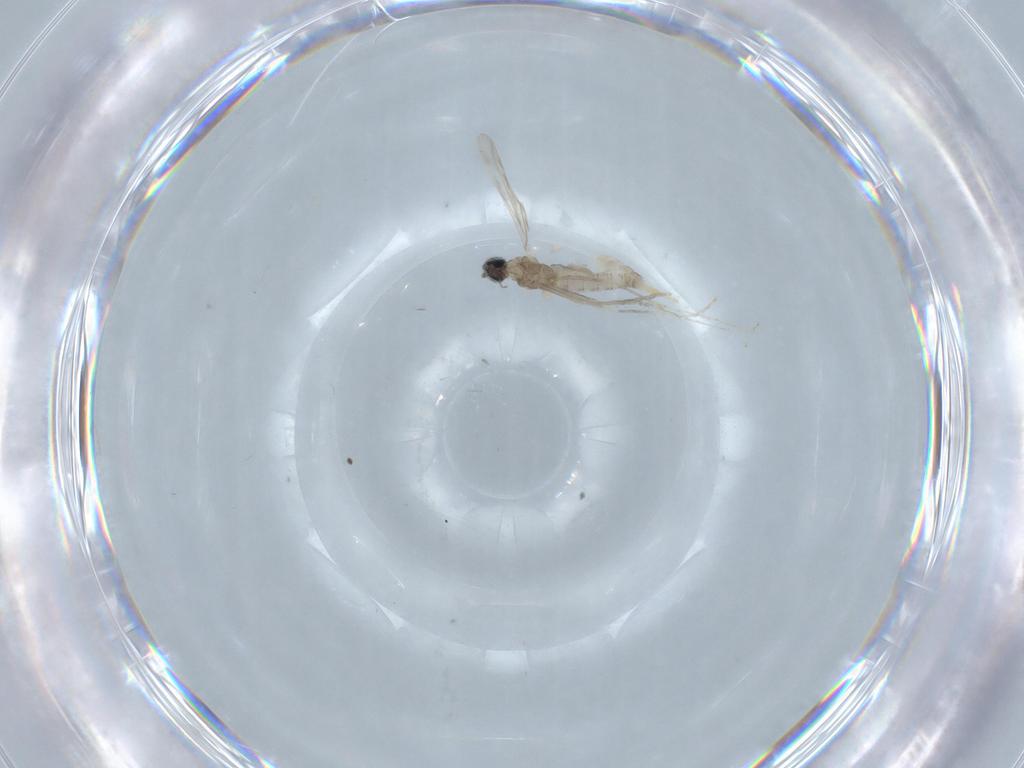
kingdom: Animalia
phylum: Arthropoda
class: Insecta
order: Diptera
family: Cecidomyiidae
